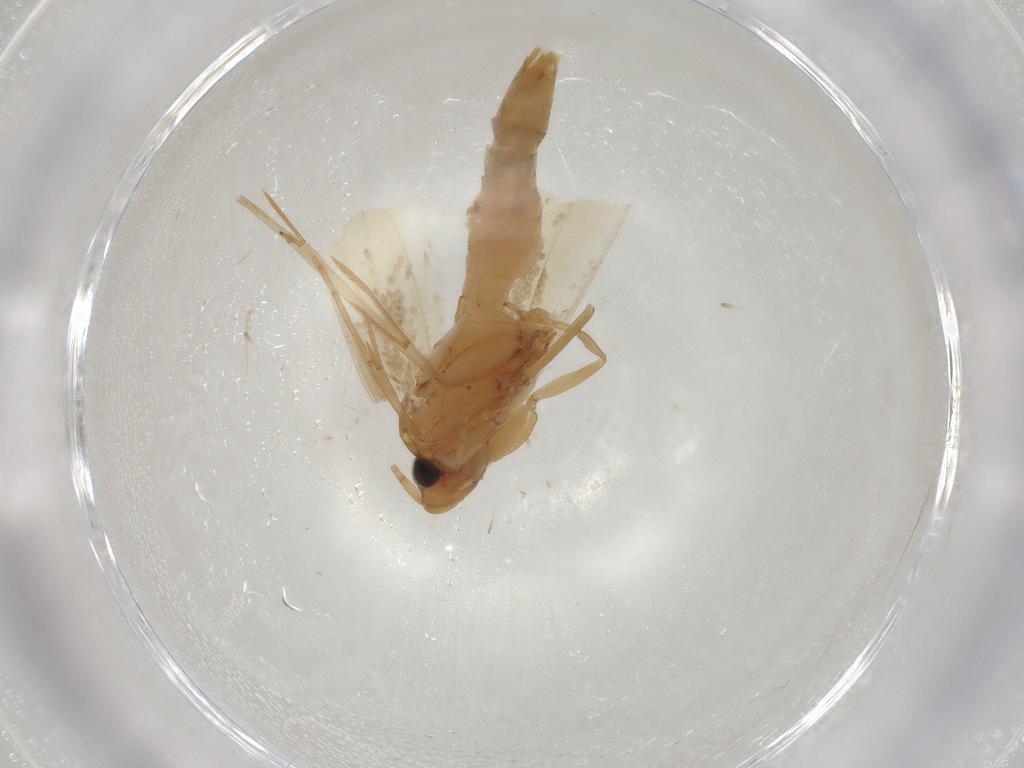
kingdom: Animalia
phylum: Arthropoda
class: Insecta
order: Lepidoptera
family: Tineidae
